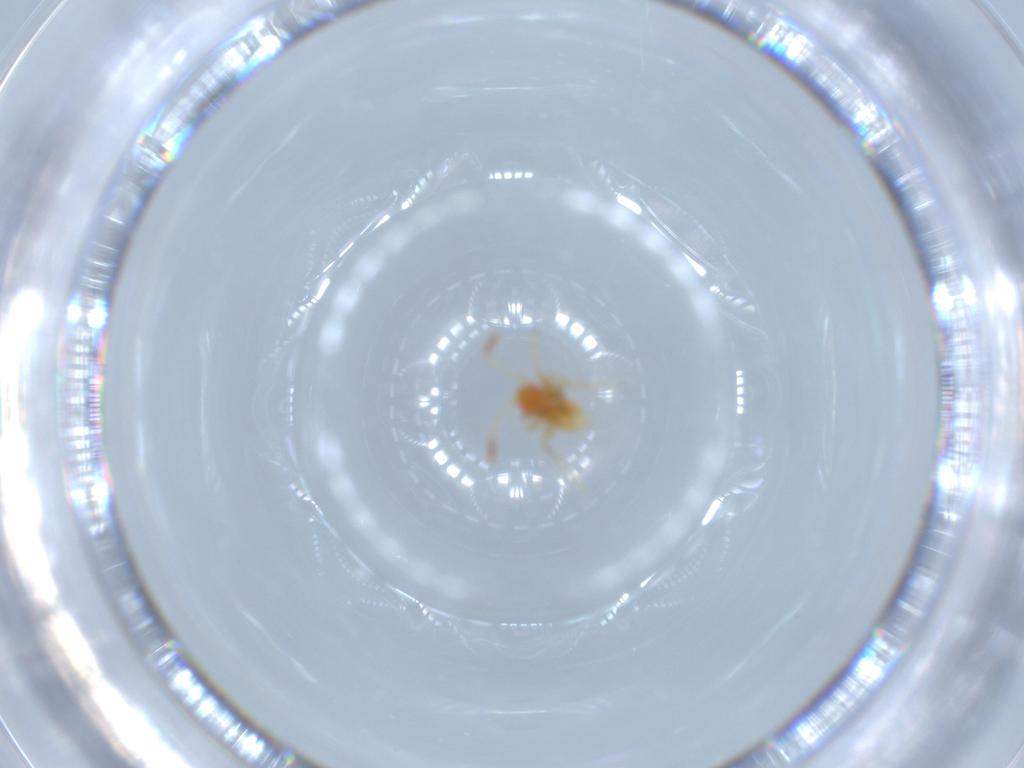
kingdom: Animalia
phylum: Arthropoda
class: Insecta
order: Hemiptera
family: Miridae
